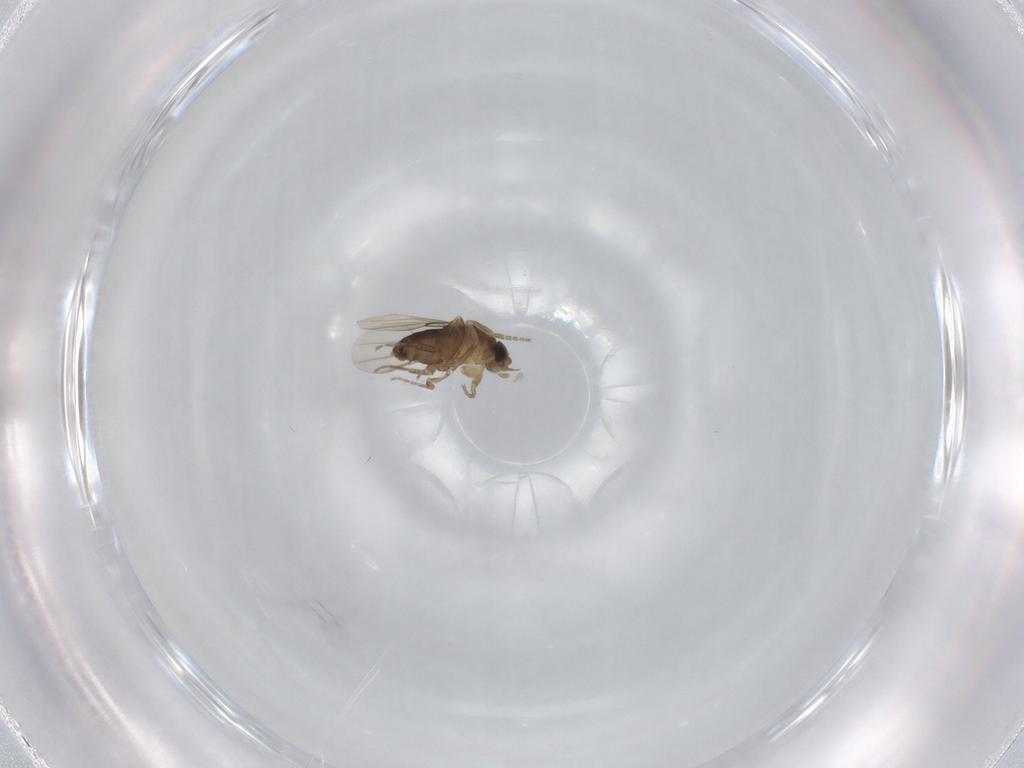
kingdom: Animalia
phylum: Arthropoda
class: Insecta
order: Diptera
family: Phoridae
